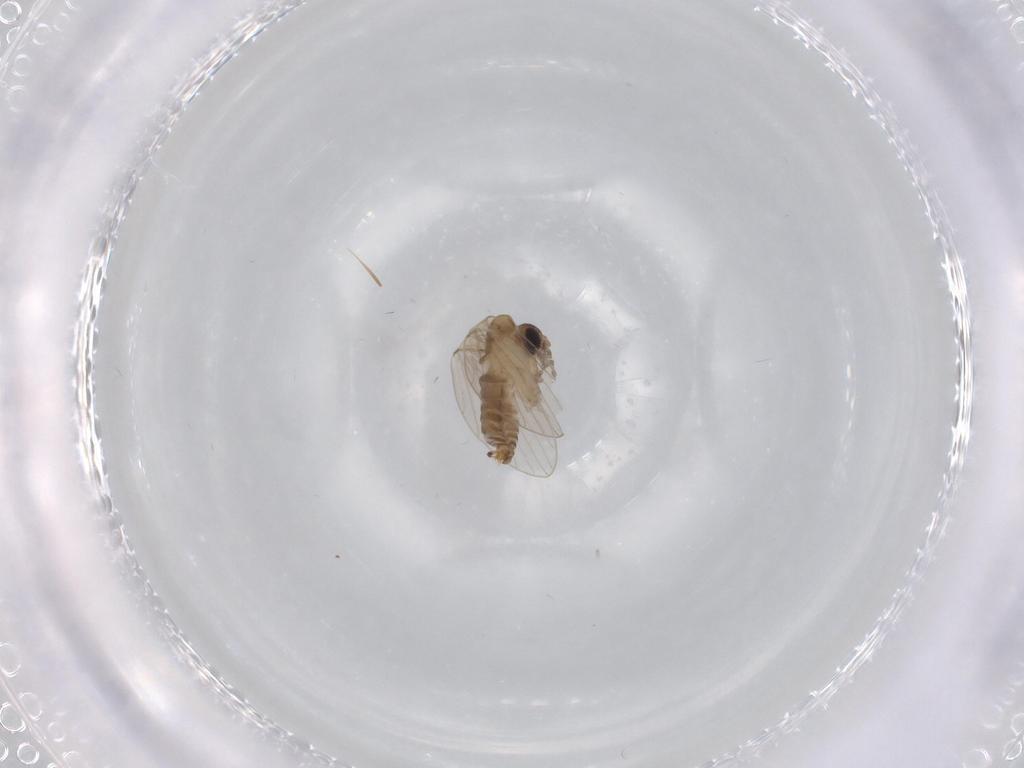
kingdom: Animalia
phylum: Arthropoda
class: Insecta
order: Diptera
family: Psychodidae
